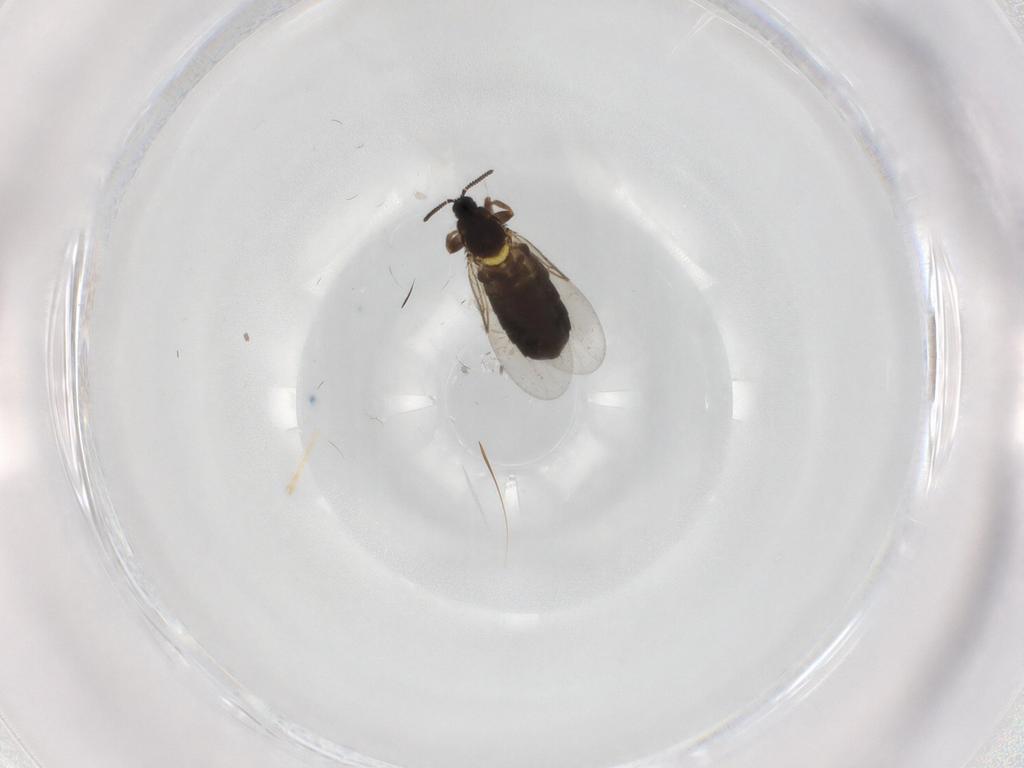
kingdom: Animalia
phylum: Arthropoda
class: Insecta
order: Diptera
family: Scatopsidae
